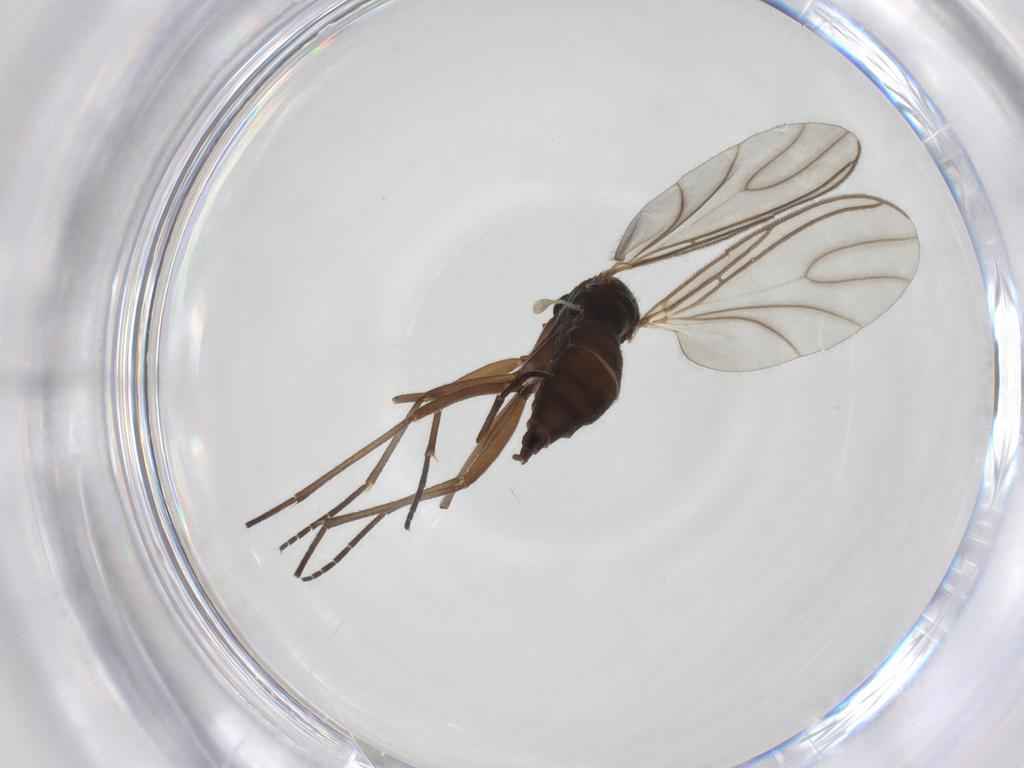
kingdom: Animalia
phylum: Arthropoda
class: Insecta
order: Diptera
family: Sciaridae
